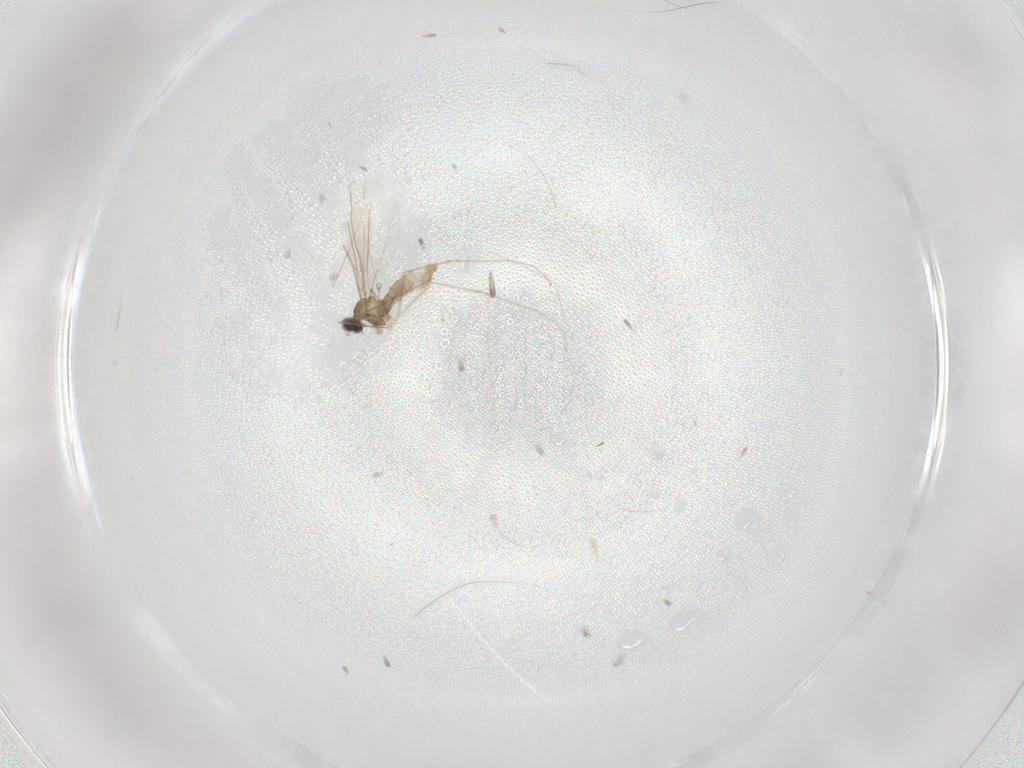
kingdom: Animalia
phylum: Arthropoda
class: Insecta
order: Diptera
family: Cecidomyiidae
